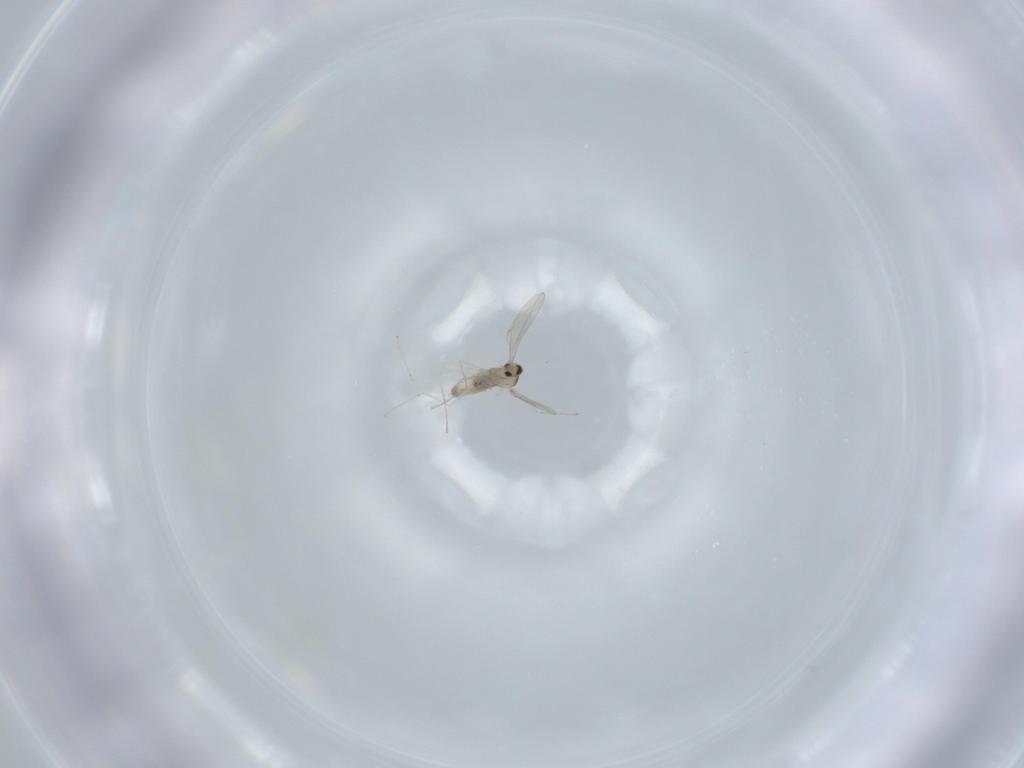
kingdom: Animalia
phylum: Arthropoda
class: Insecta
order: Diptera
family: Cecidomyiidae
